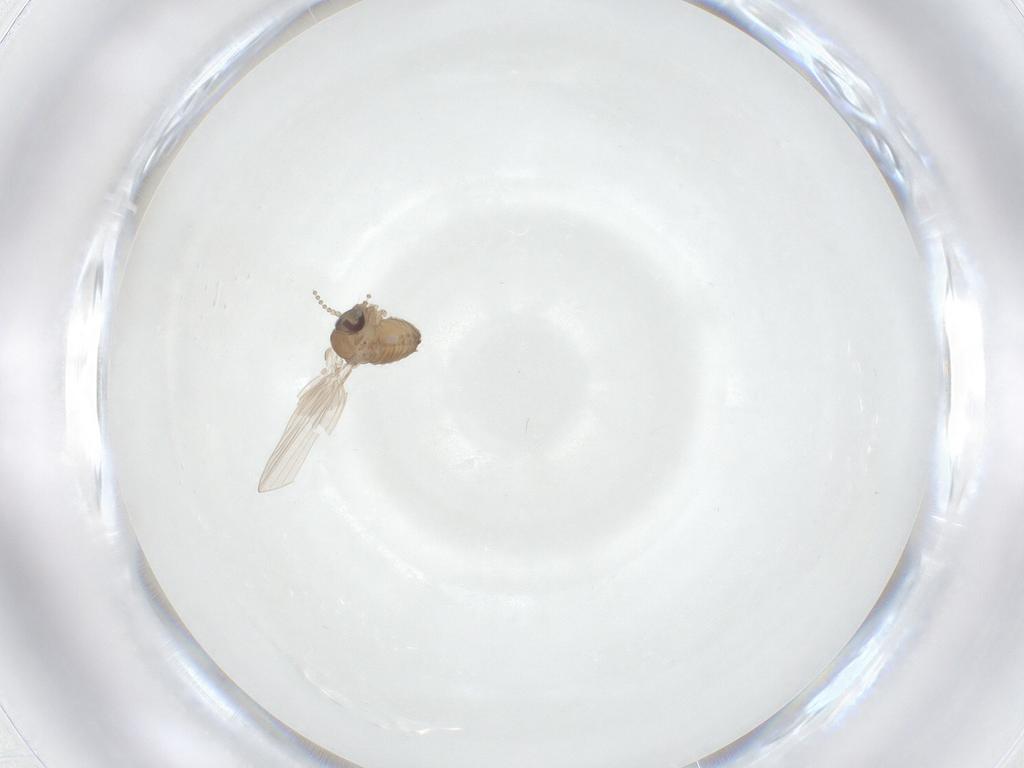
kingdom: Animalia
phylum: Arthropoda
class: Insecta
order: Diptera
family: Psychodidae
